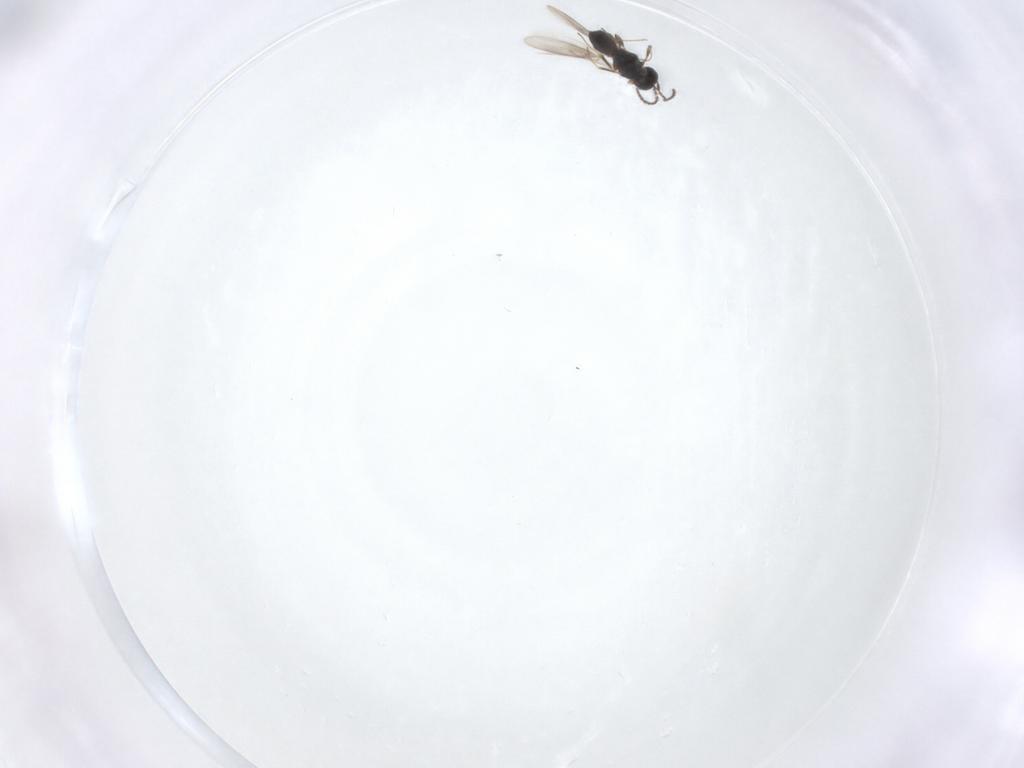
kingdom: Animalia
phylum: Arthropoda
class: Insecta
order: Hymenoptera
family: Scelionidae
